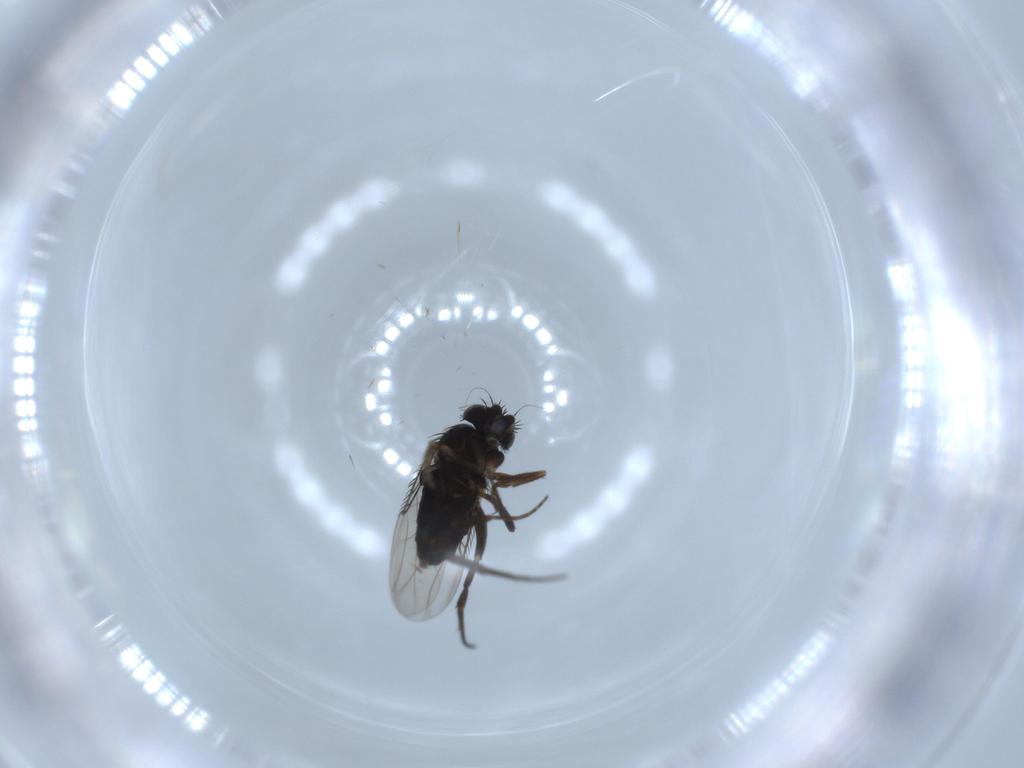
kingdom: Animalia
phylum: Arthropoda
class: Insecta
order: Diptera
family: Phoridae
